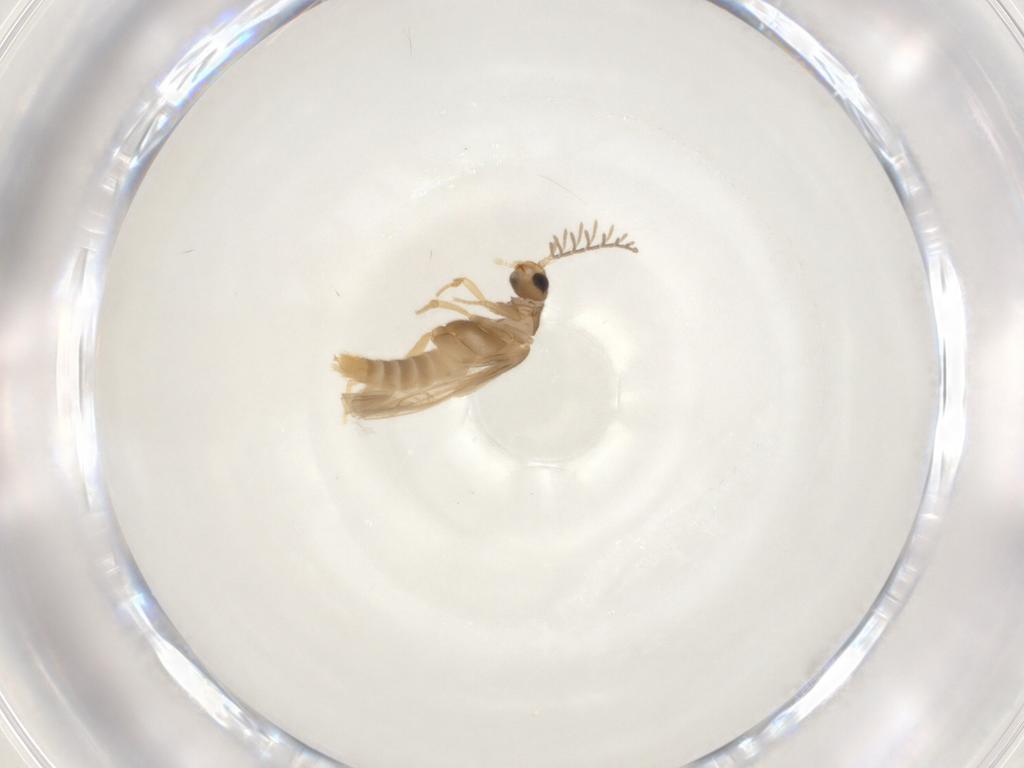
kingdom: Animalia
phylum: Arthropoda
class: Insecta
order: Coleoptera
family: Phengodidae
